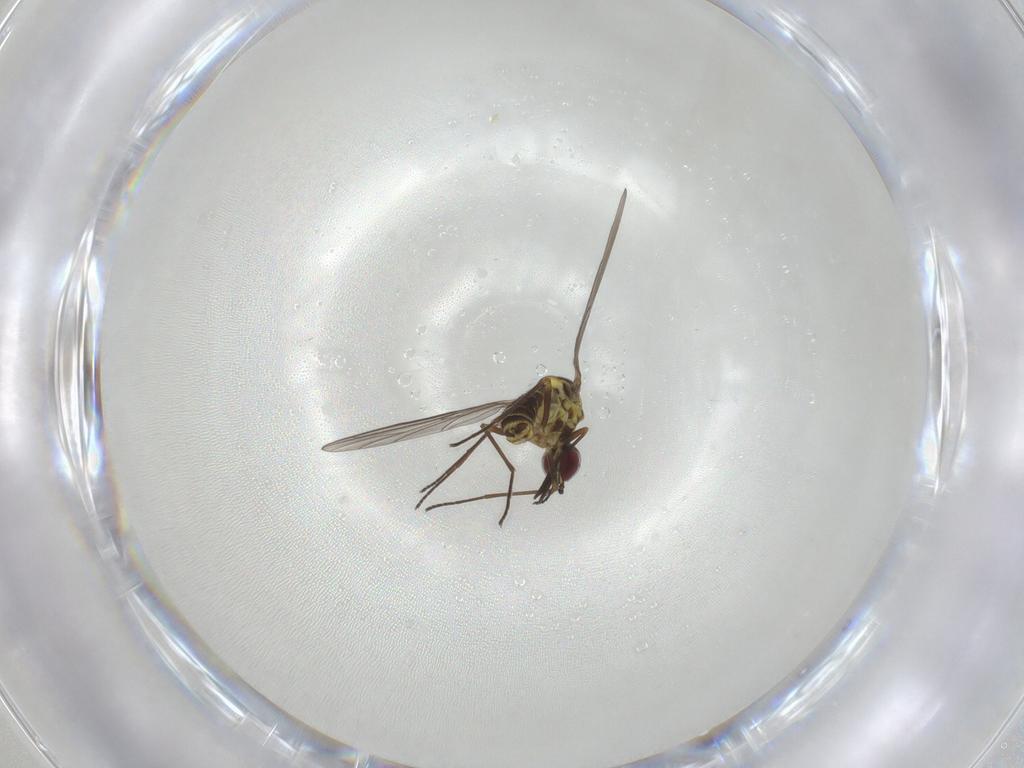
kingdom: Animalia
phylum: Arthropoda
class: Insecta
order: Diptera
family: Bombyliidae
